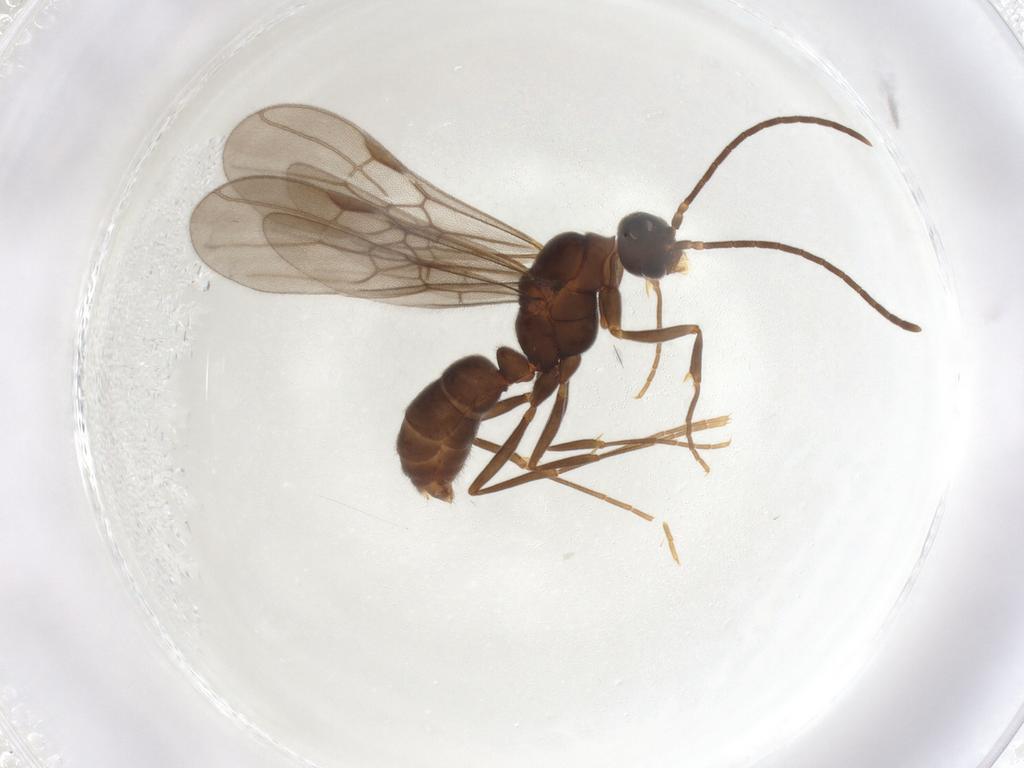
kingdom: Animalia
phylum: Arthropoda
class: Insecta
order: Hymenoptera
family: Formicidae
